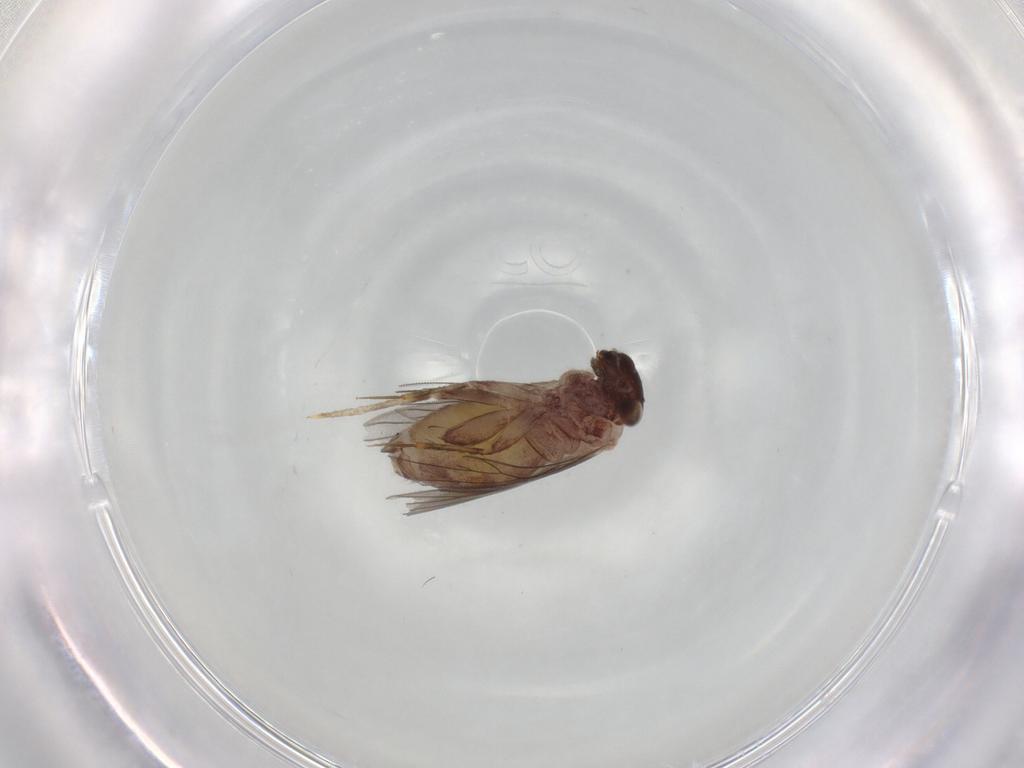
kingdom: Animalia
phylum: Arthropoda
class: Insecta
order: Psocodea
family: Lepidopsocidae
